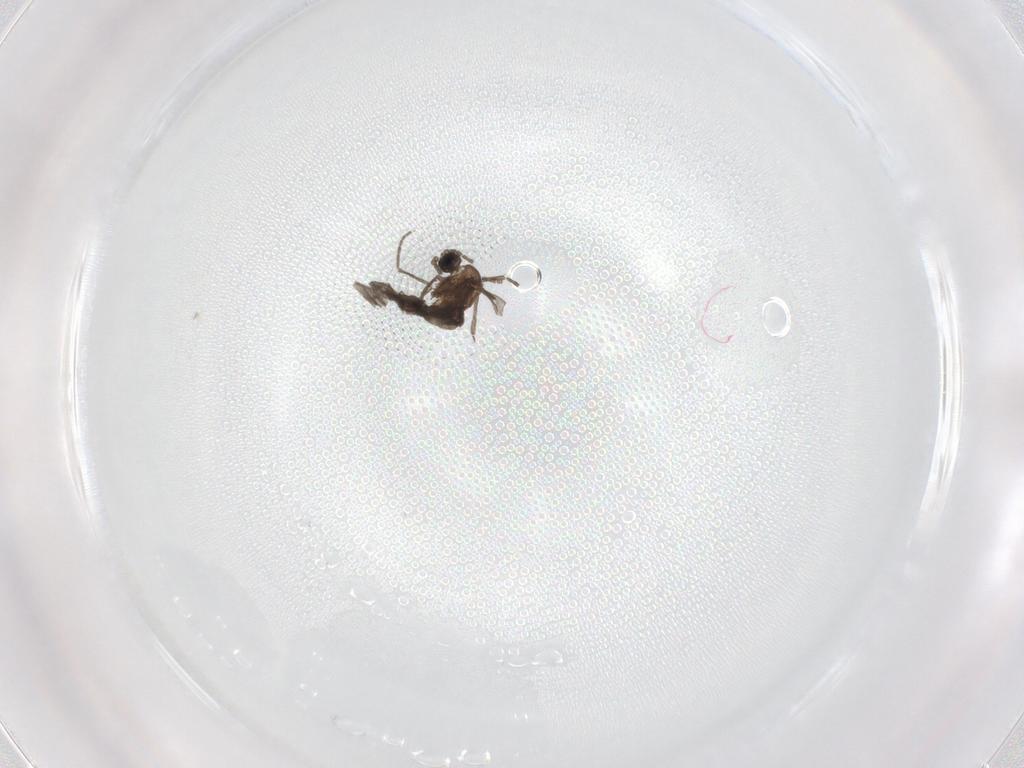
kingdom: Animalia
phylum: Arthropoda
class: Insecta
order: Diptera
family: Sciaridae
